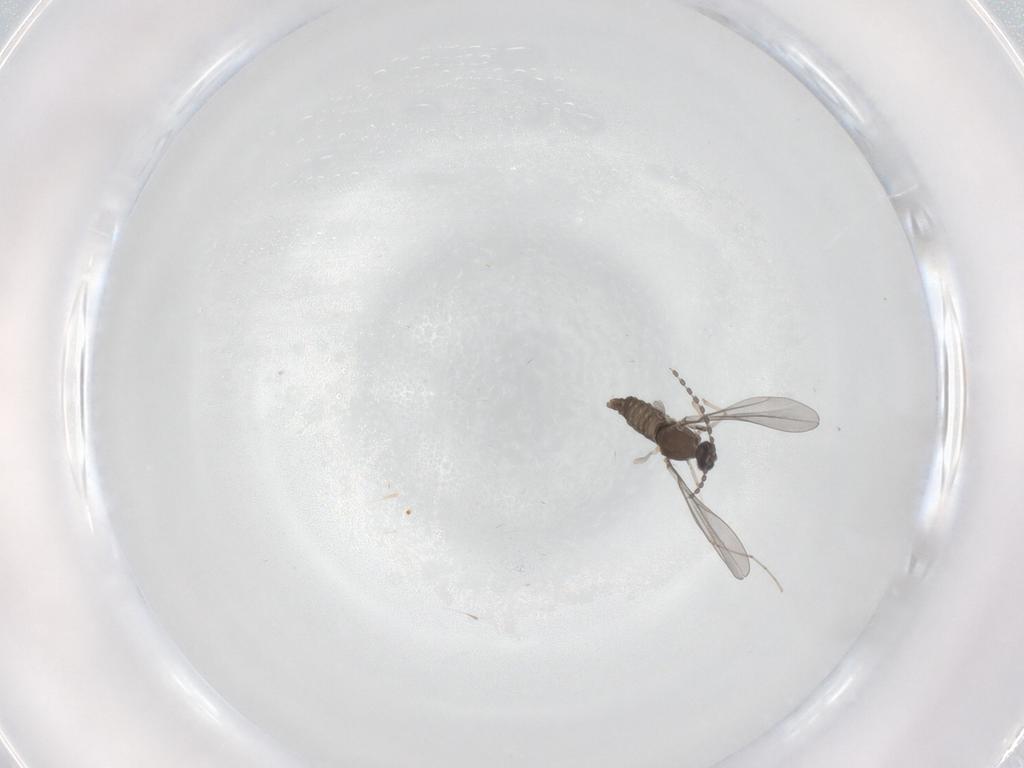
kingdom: Animalia
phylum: Arthropoda
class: Insecta
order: Diptera
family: Cecidomyiidae
